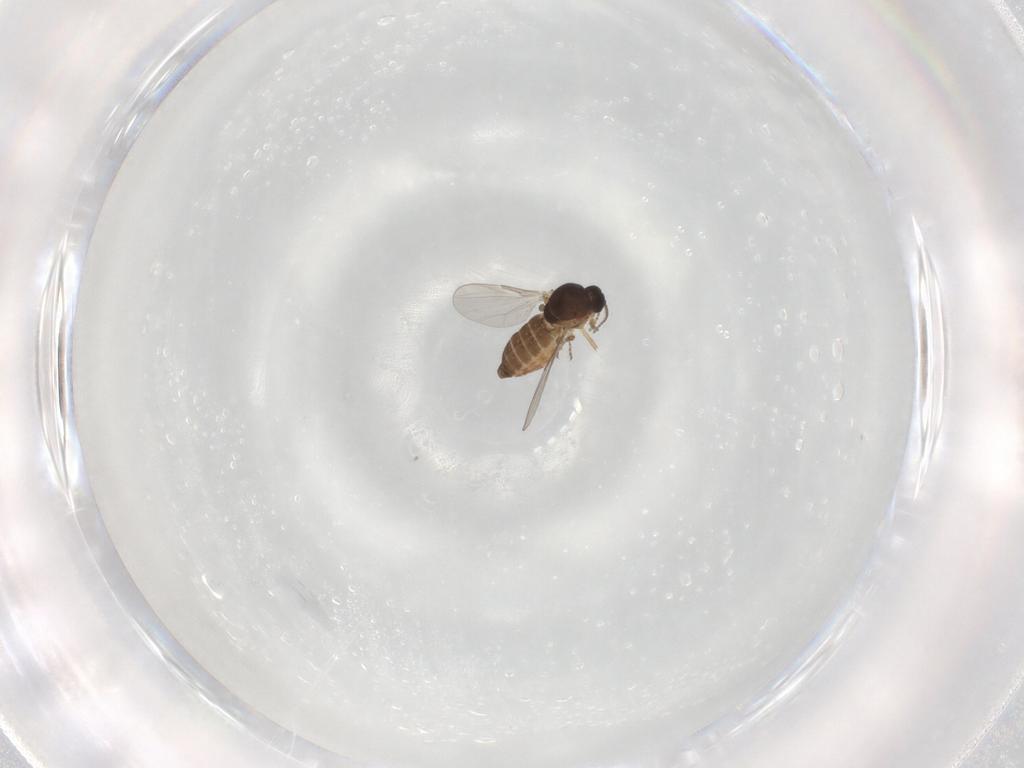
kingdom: Animalia
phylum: Arthropoda
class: Insecta
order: Diptera
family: Chironomidae
